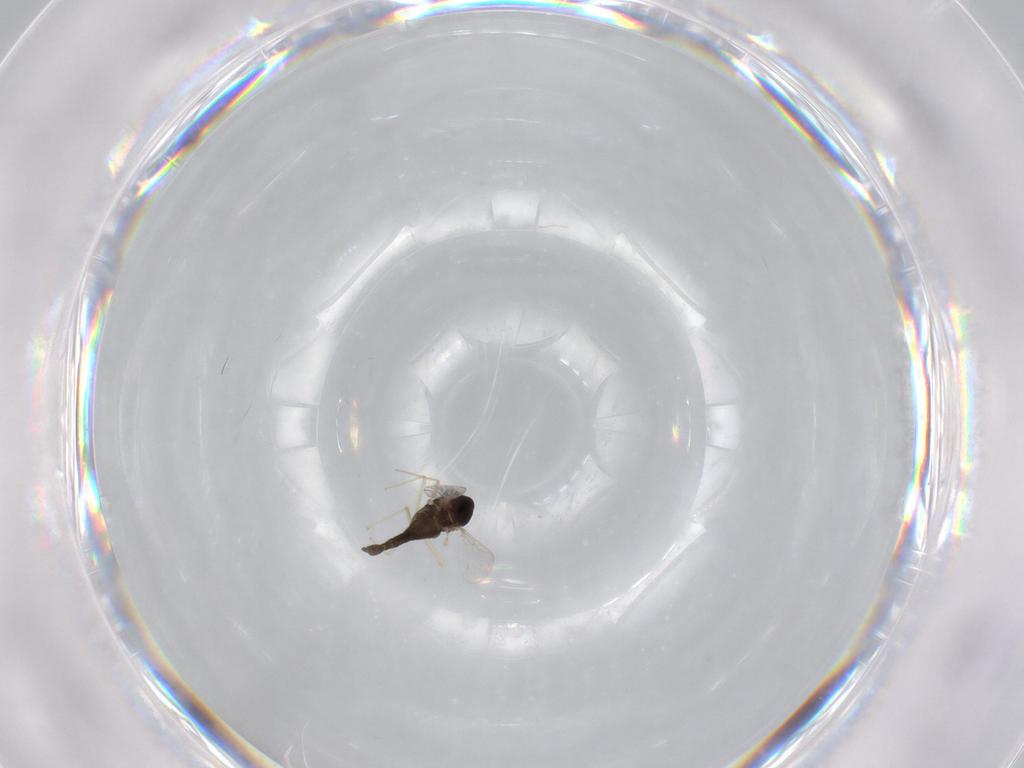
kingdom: Animalia
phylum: Arthropoda
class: Insecta
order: Diptera
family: Chironomidae
